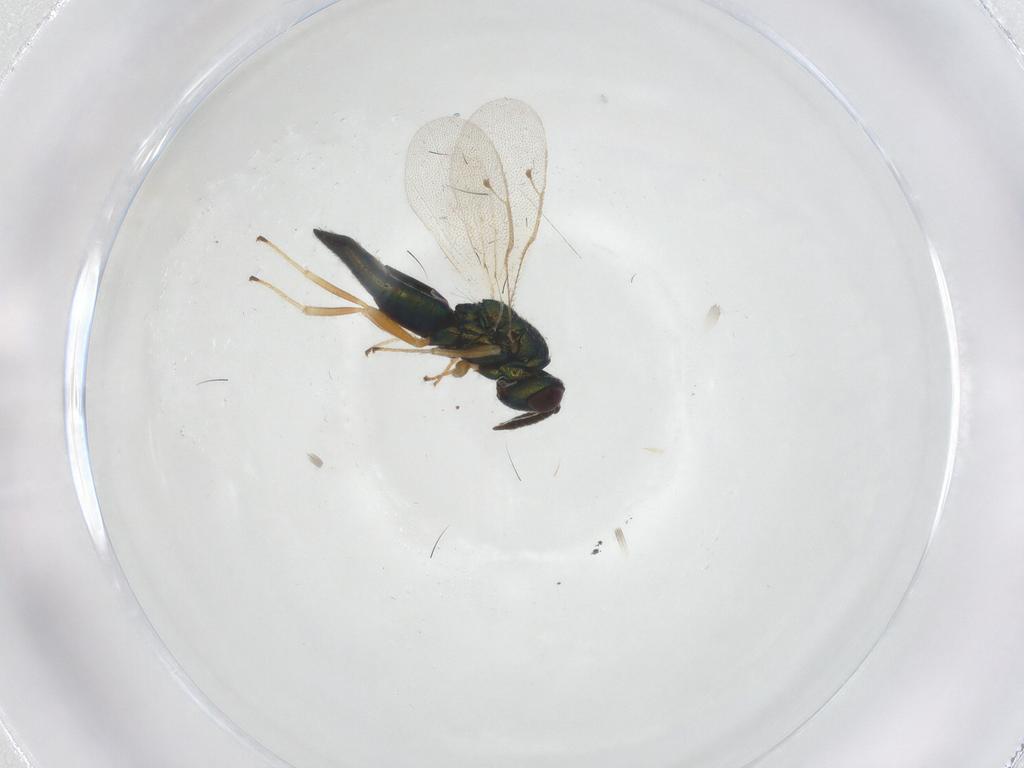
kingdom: Animalia
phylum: Arthropoda
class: Insecta
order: Hymenoptera
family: Pteromalidae
